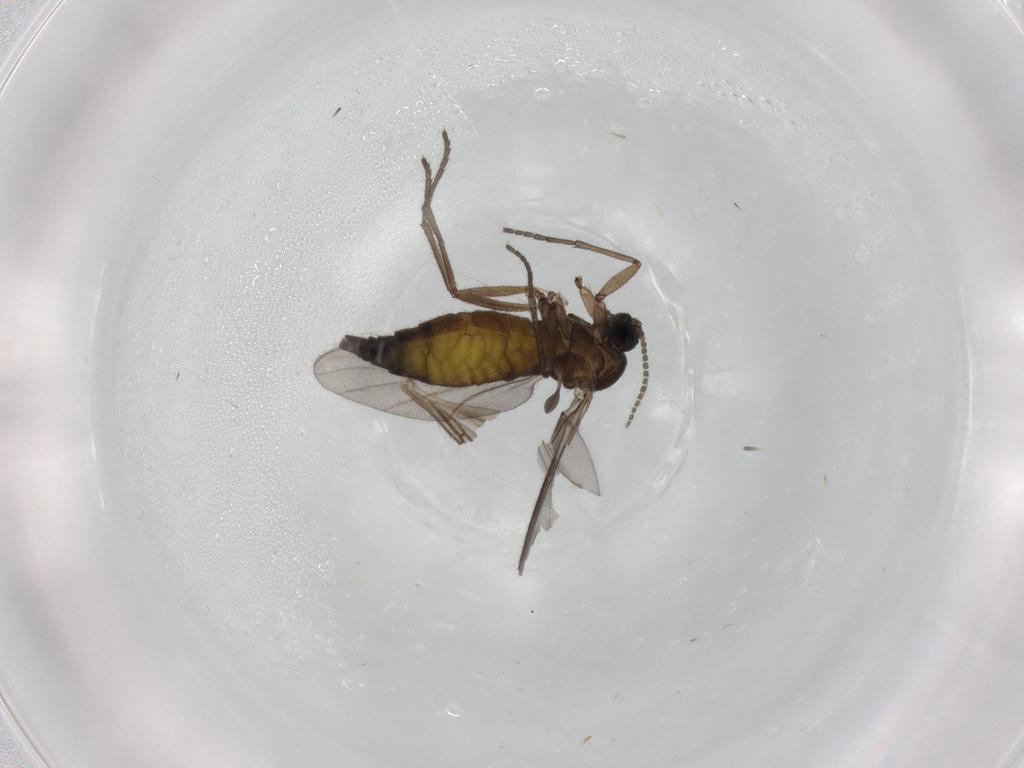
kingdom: Animalia
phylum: Arthropoda
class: Insecta
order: Diptera
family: Sciaridae
